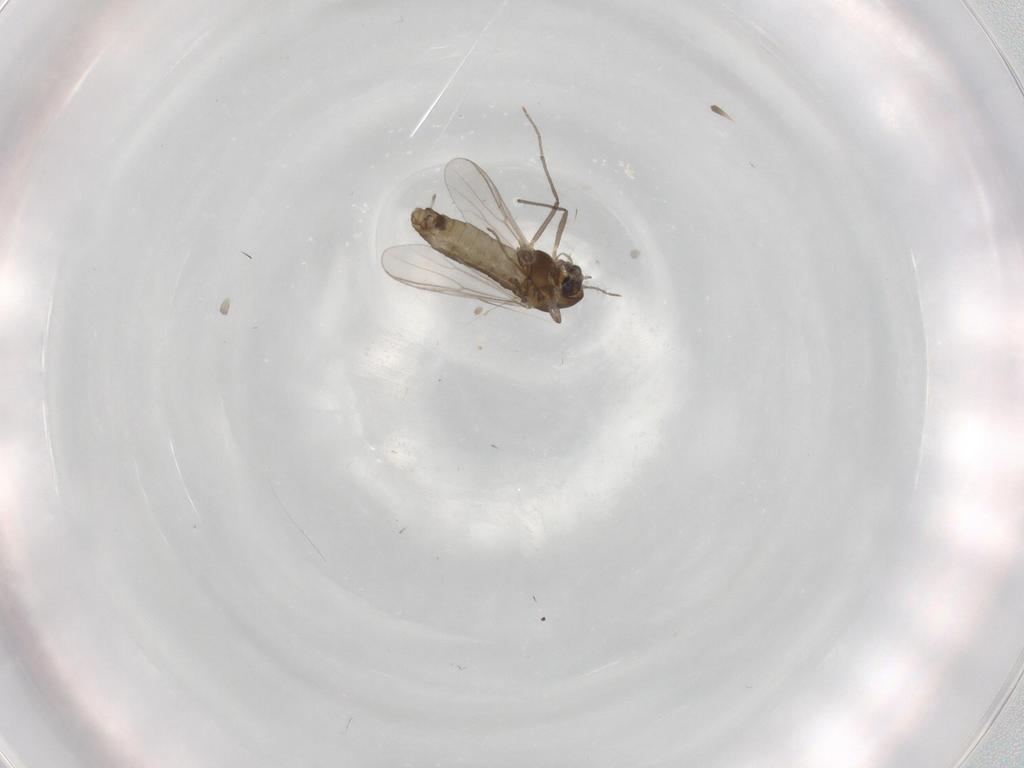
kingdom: Animalia
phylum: Arthropoda
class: Insecta
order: Diptera
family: Chironomidae
